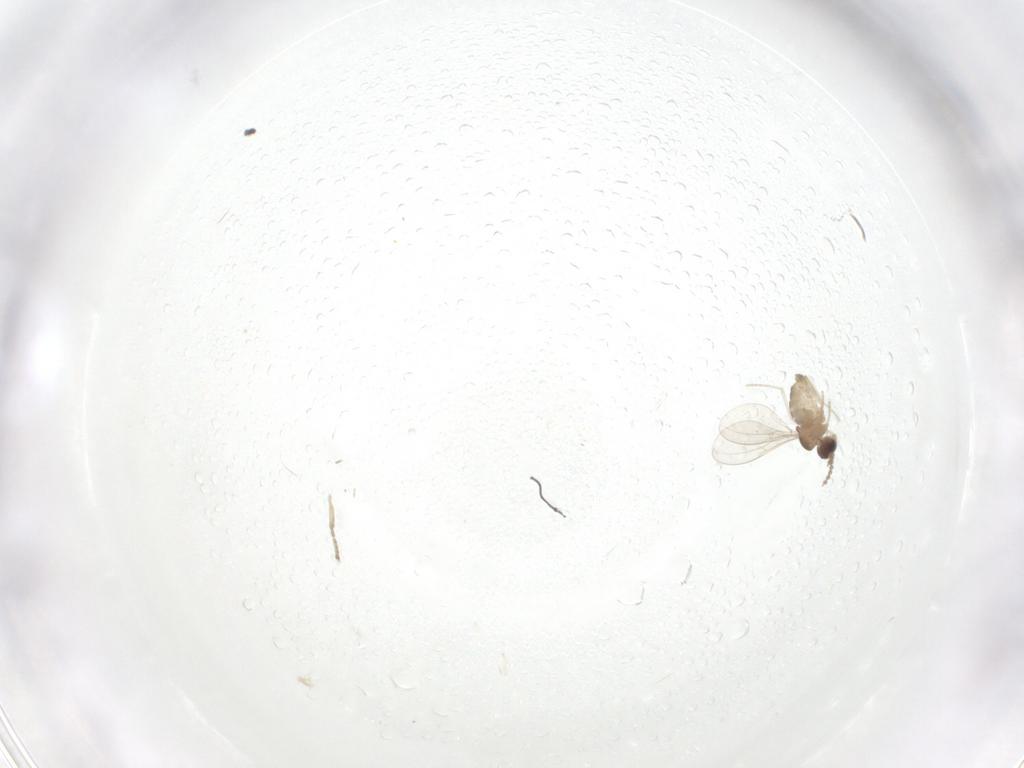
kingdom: Animalia
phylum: Arthropoda
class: Insecta
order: Diptera
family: Cecidomyiidae
